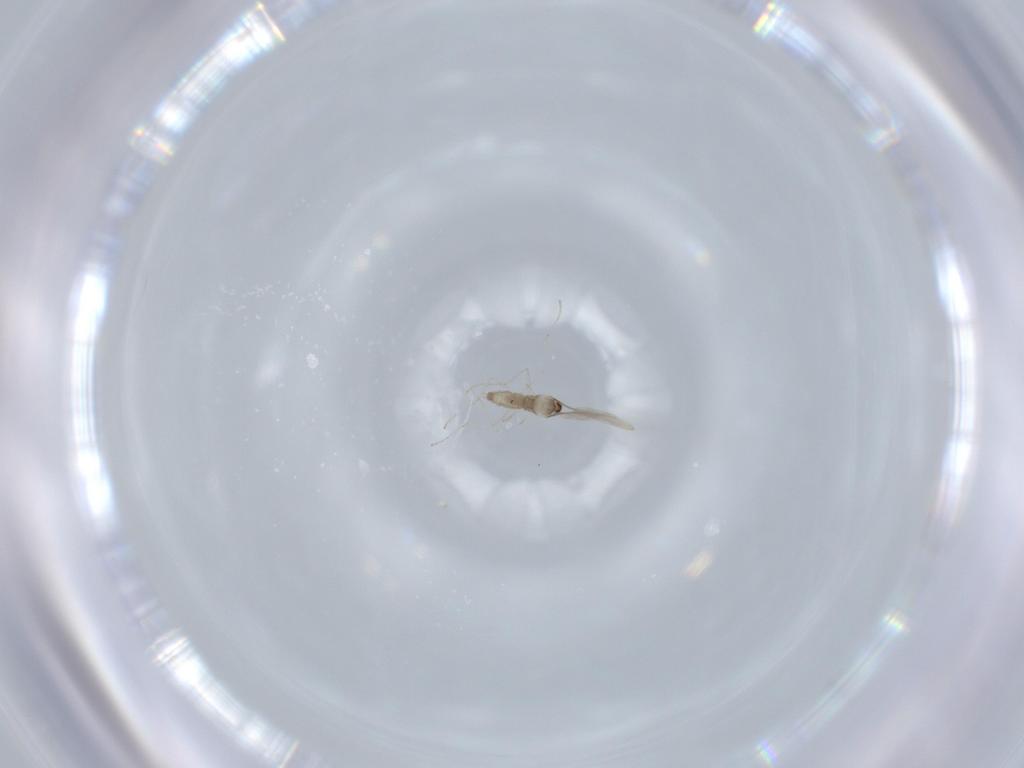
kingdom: Animalia
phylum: Arthropoda
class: Insecta
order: Diptera
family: Cecidomyiidae
